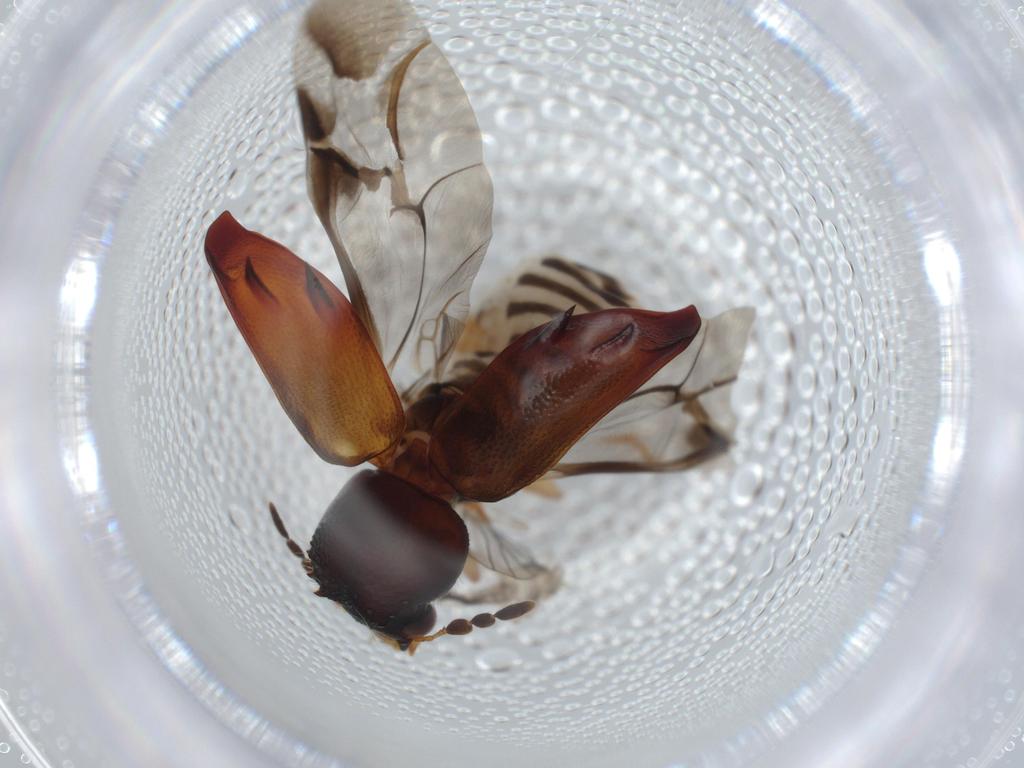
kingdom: Animalia
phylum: Arthropoda
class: Insecta
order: Coleoptera
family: Bostrichidae
